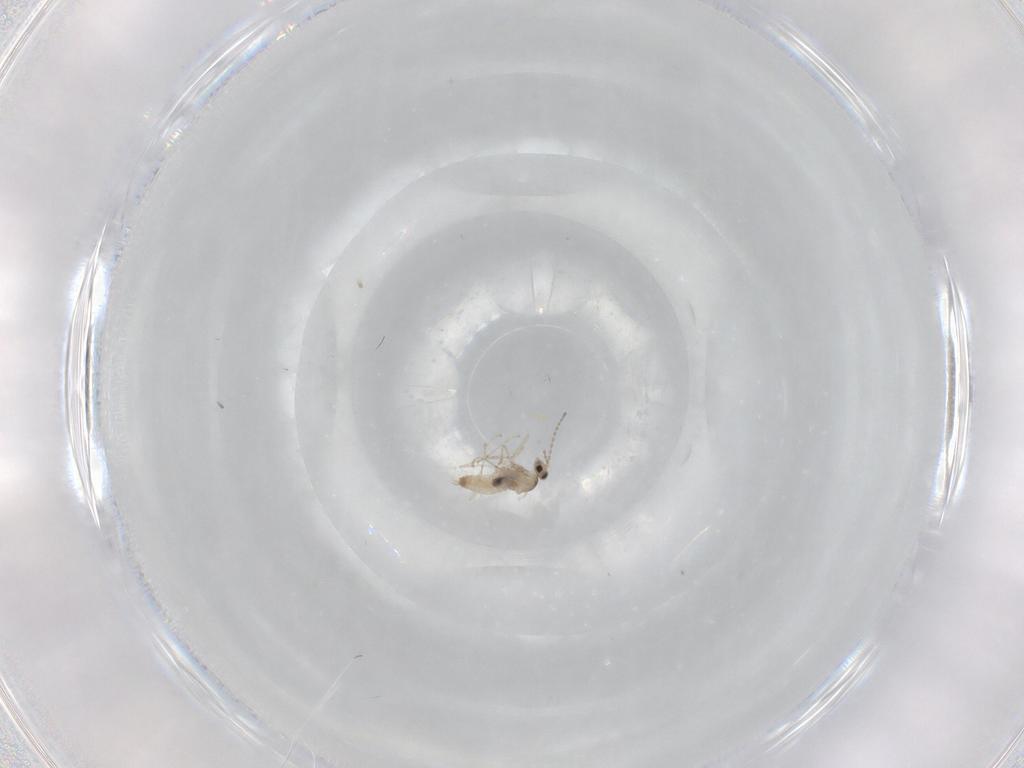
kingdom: Animalia
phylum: Arthropoda
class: Insecta
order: Diptera
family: Cecidomyiidae
